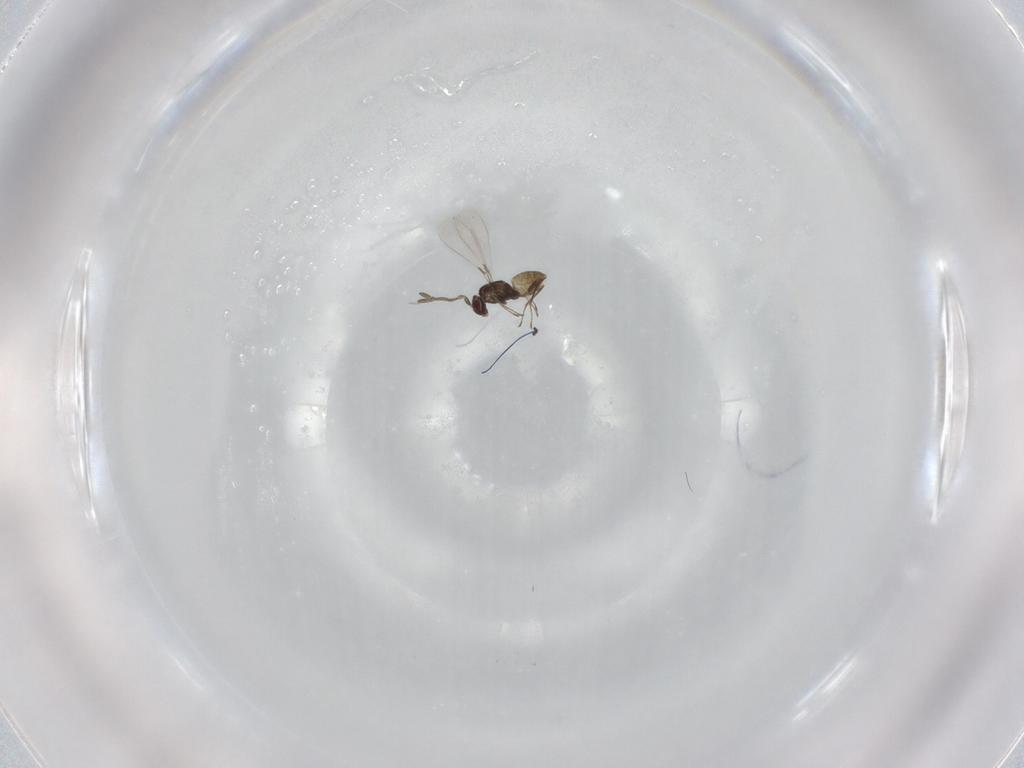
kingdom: Animalia
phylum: Arthropoda
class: Insecta
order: Hymenoptera
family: Mymaridae
